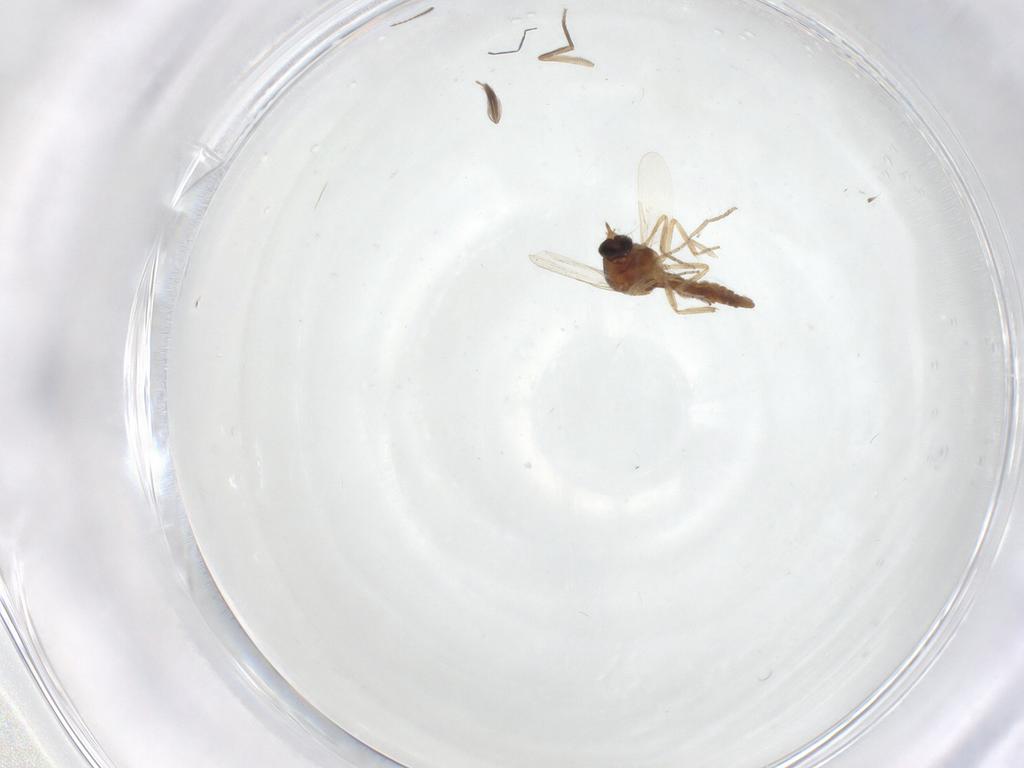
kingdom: Animalia
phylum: Arthropoda
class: Insecta
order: Diptera
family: Ceratopogonidae
